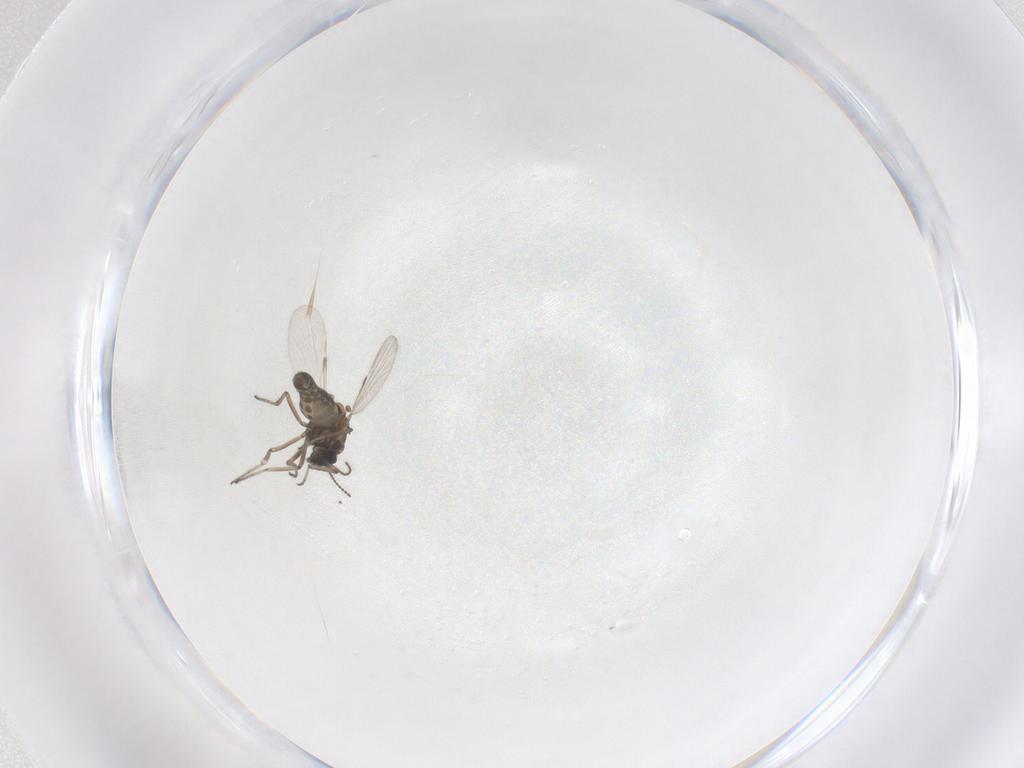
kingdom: Animalia
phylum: Arthropoda
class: Insecta
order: Diptera
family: Ceratopogonidae
